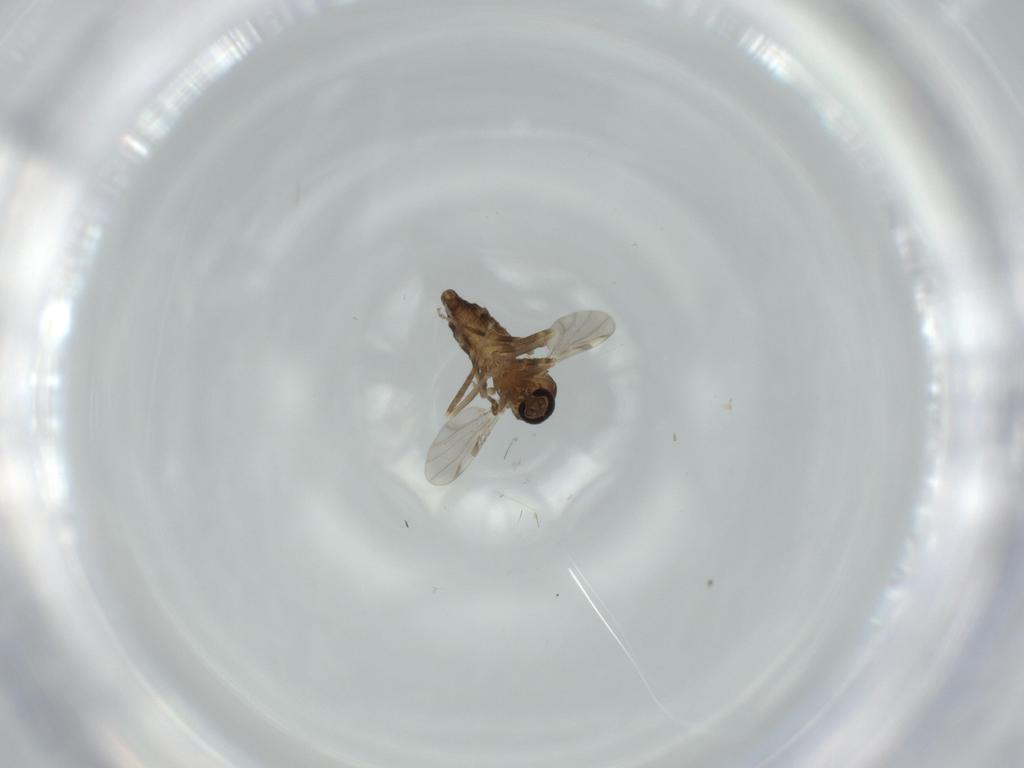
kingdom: Animalia
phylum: Arthropoda
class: Insecta
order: Diptera
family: Ceratopogonidae
